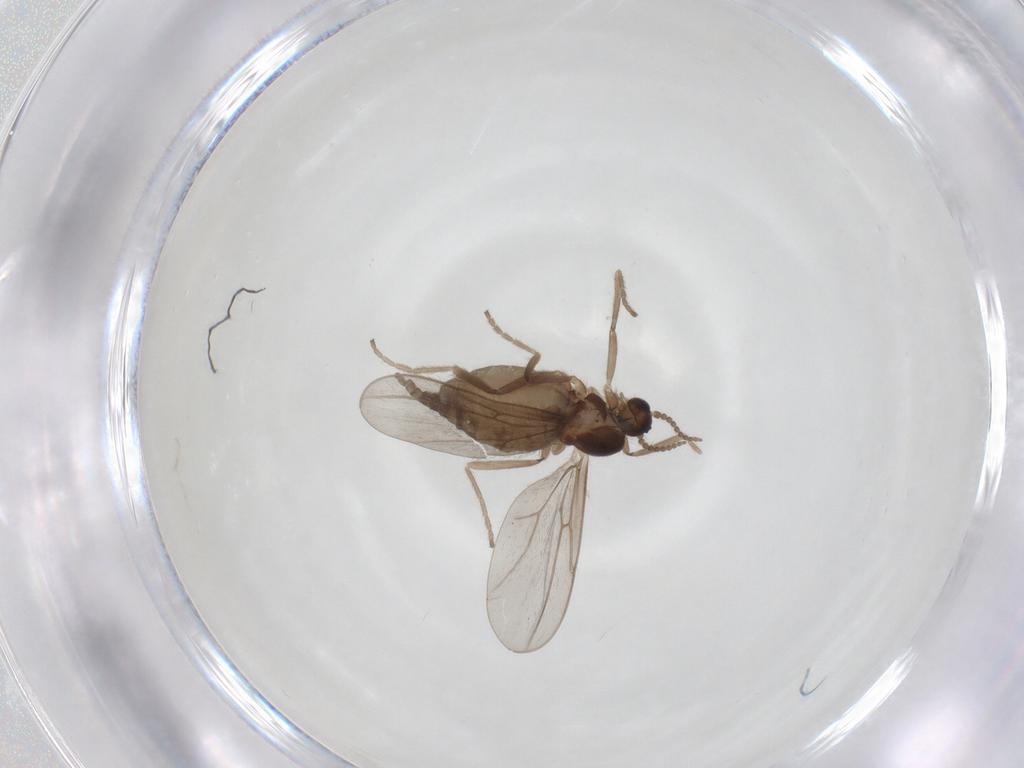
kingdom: Animalia
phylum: Arthropoda
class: Insecta
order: Diptera
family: Cecidomyiidae
